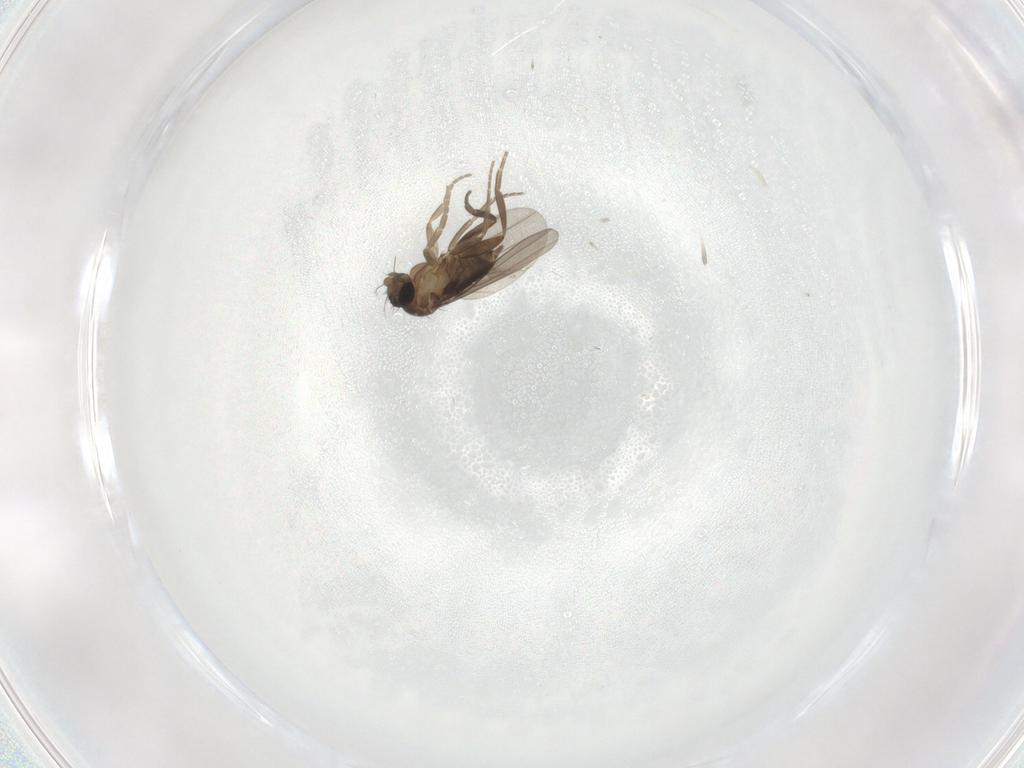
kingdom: Animalia
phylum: Arthropoda
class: Insecta
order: Diptera
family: Phoridae
